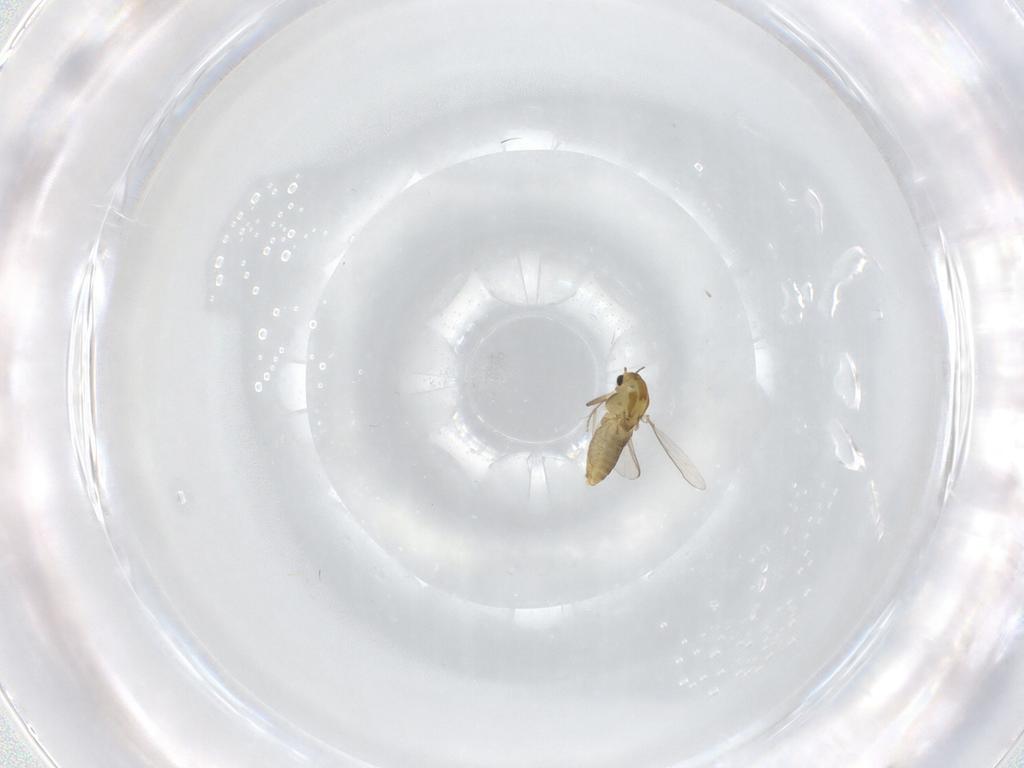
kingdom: Animalia
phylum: Arthropoda
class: Insecta
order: Diptera
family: Chironomidae
